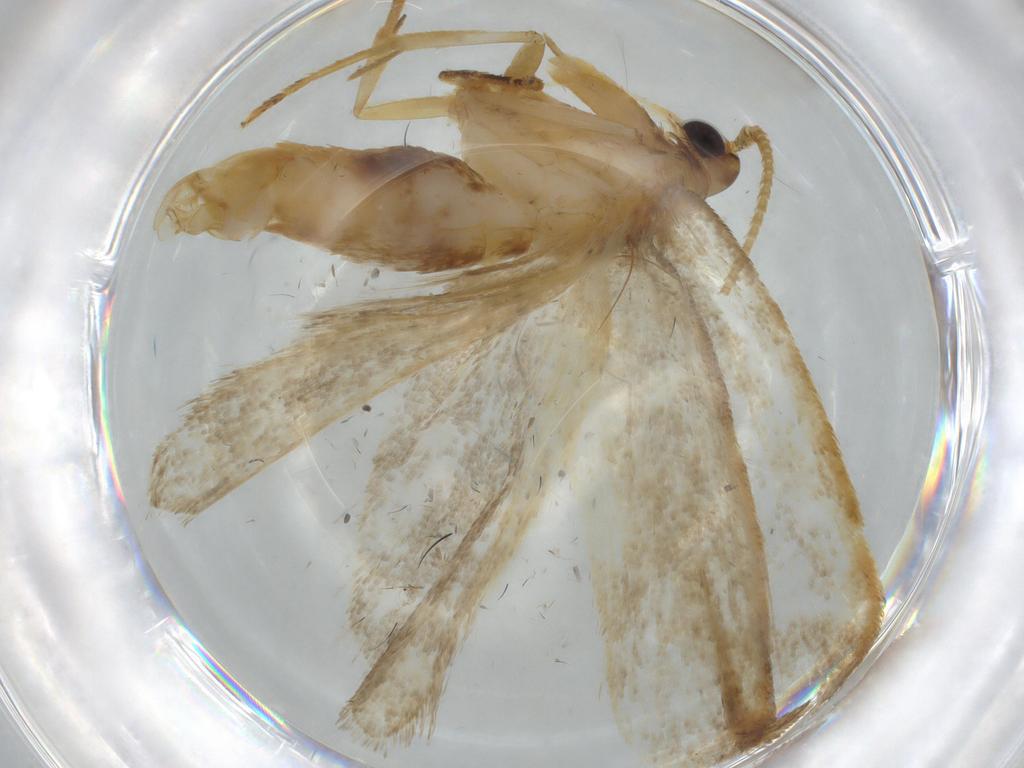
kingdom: Animalia
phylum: Arthropoda
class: Insecta
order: Lepidoptera
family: Lecithoceridae
